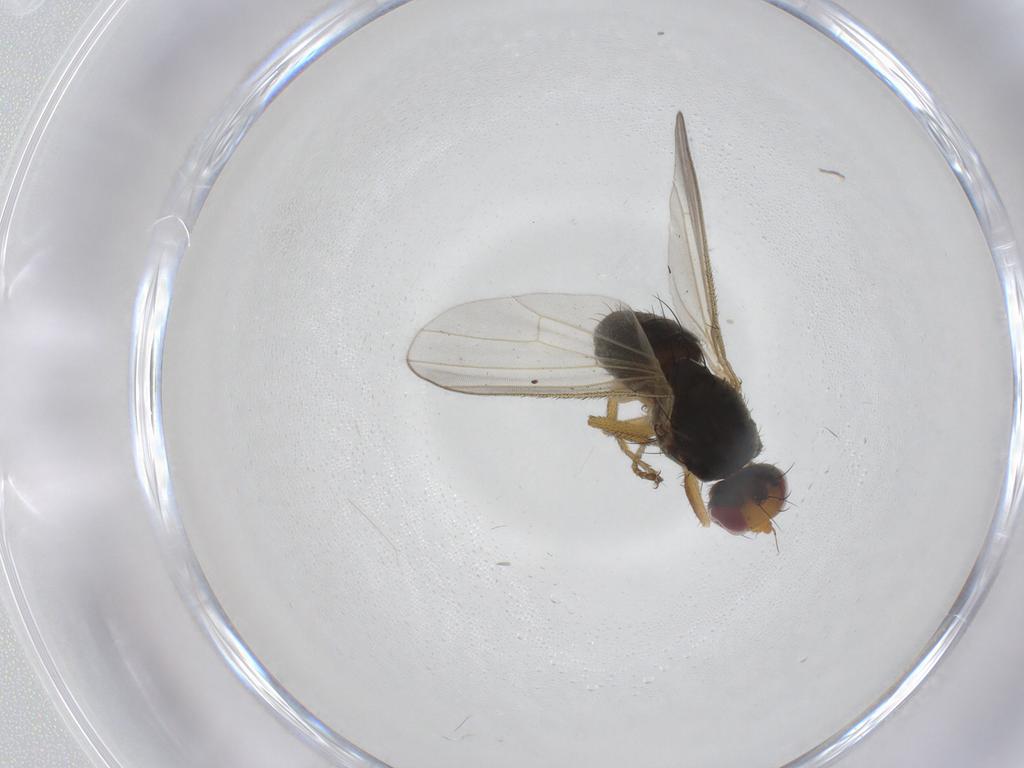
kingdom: Animalia
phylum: Arthropoda
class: Insecta
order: Diptera
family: Heleomyzidae
